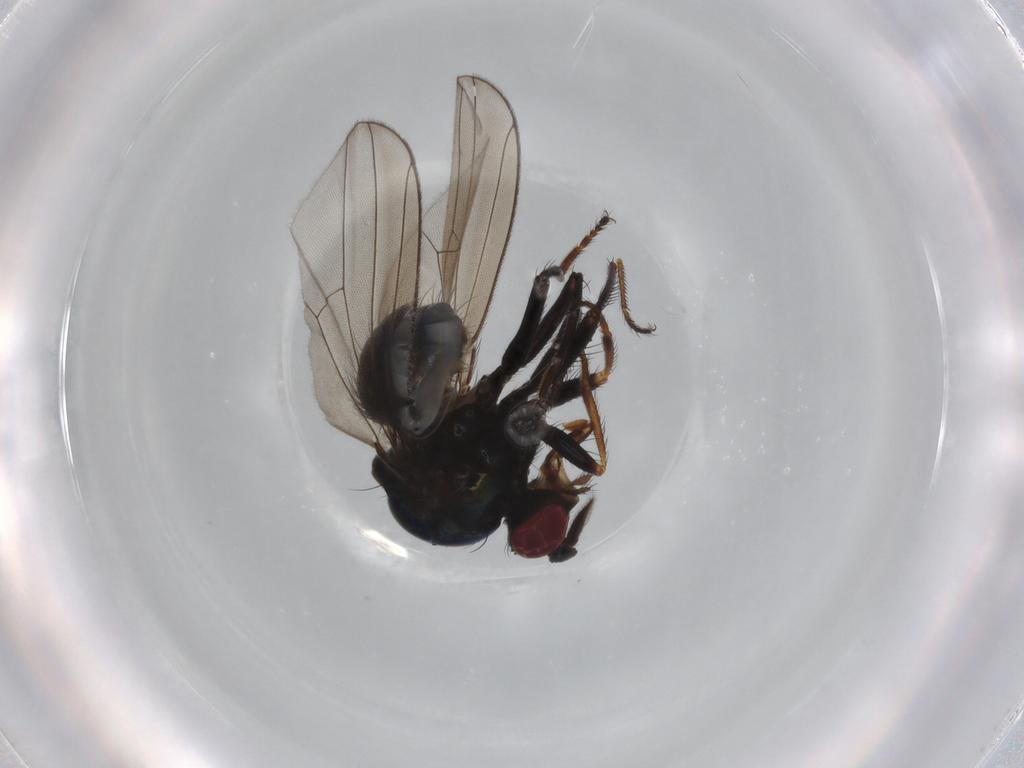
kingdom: Animalia
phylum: Arthropoda
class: Insecta
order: Diptera
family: Ephydridae
